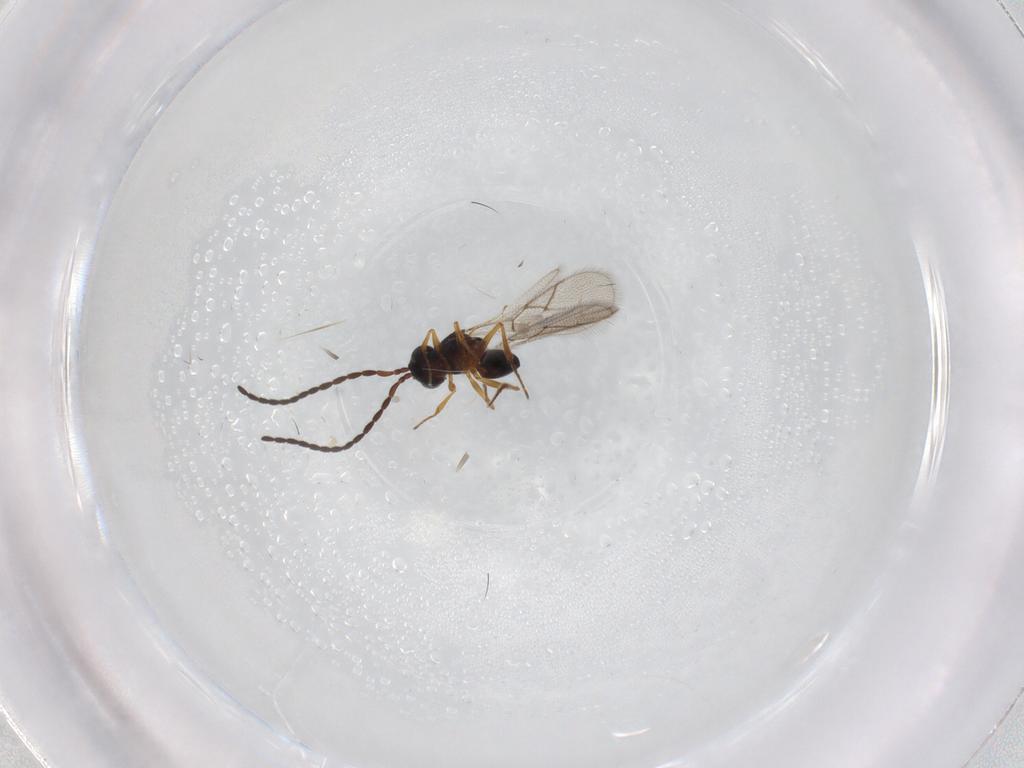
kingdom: Animalia
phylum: Arthropoda
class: Insecta
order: Hymenoptera
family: Figitidae
